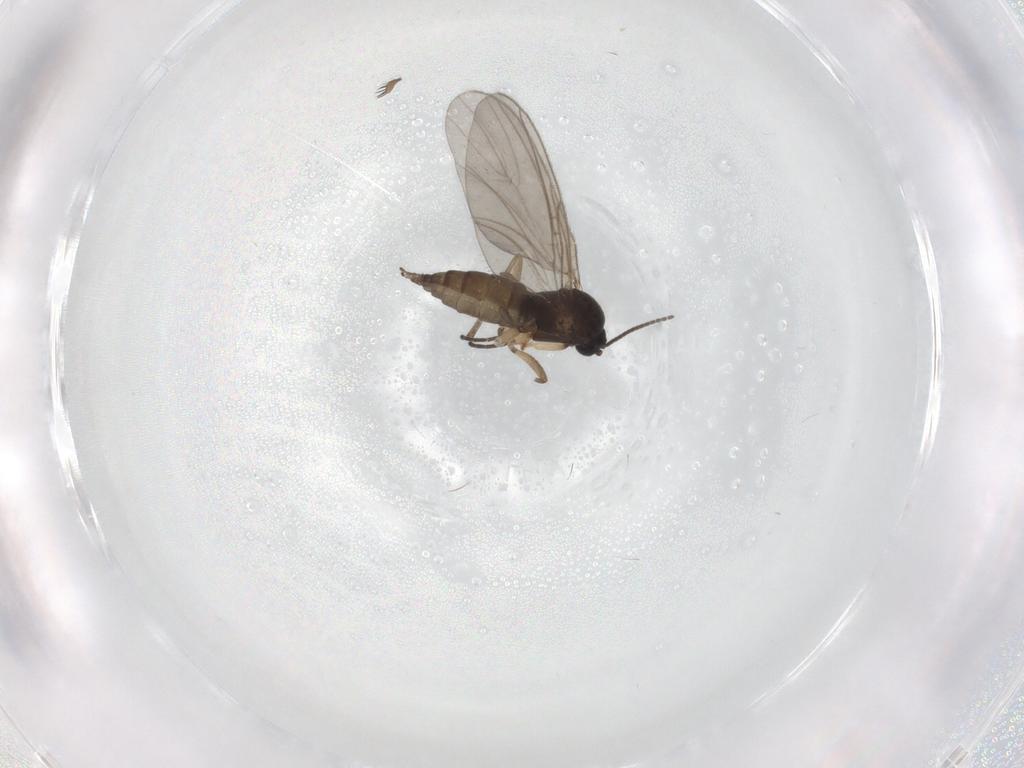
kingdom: Animalia
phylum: Arthropoda
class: Insecta
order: Diptera
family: Sciaridae
